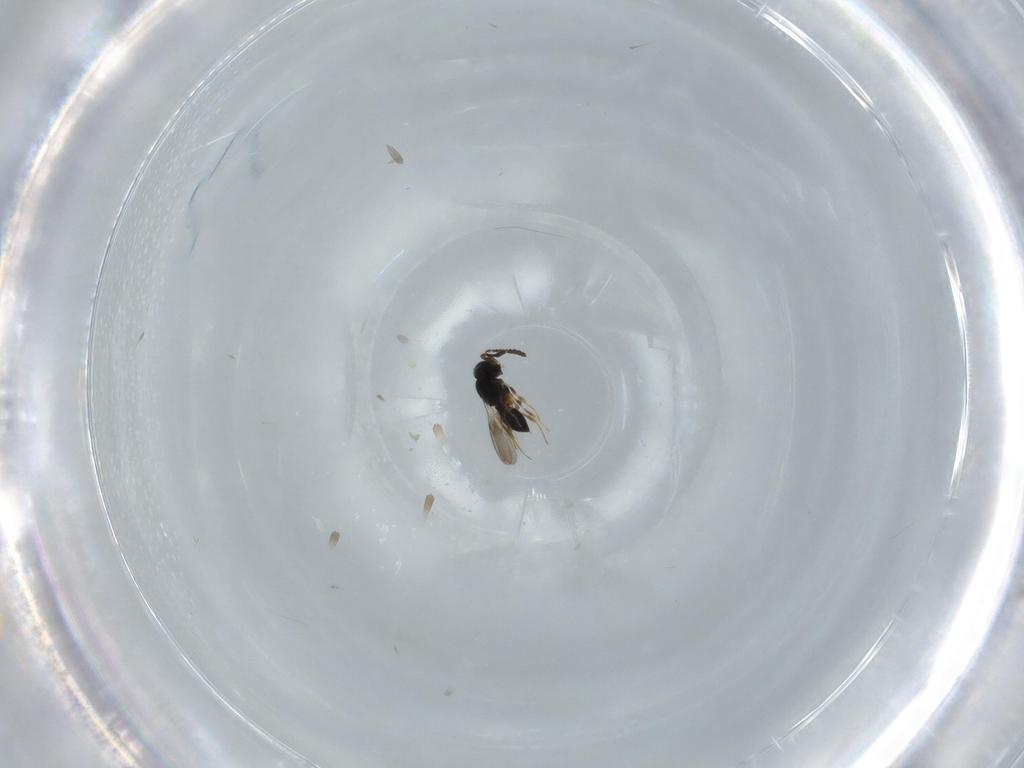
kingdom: Animalia
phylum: Arthropoda
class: Insecta
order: Hymenoptera
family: Scelionidae
